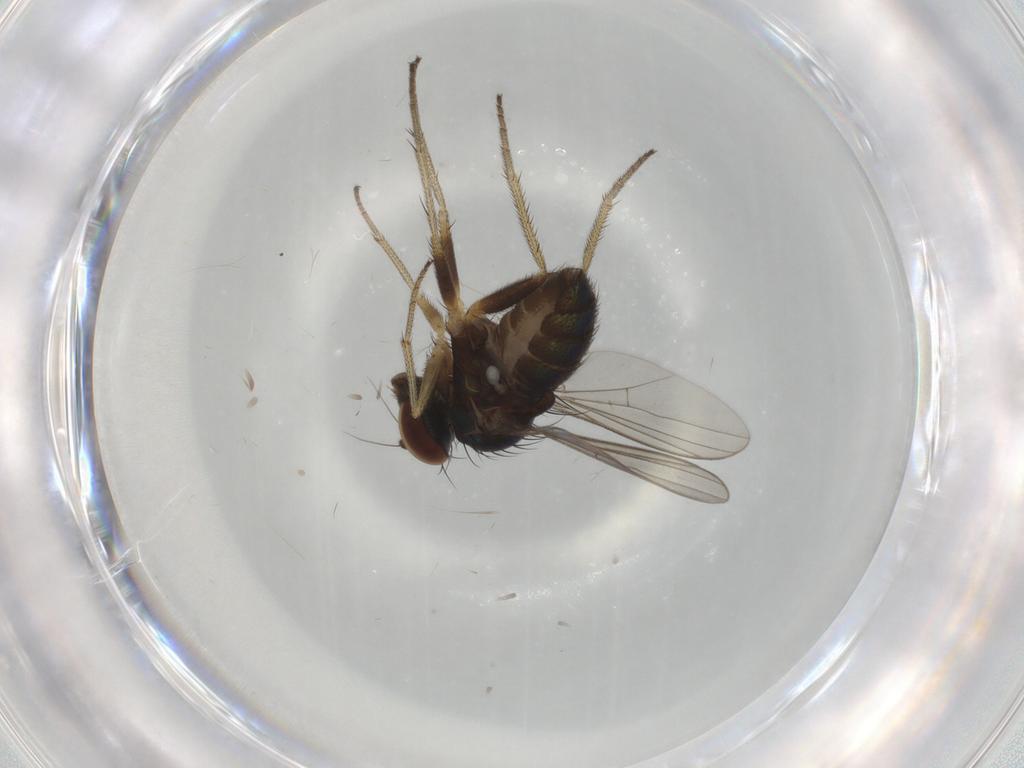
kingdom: Animalia
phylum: Arthropoda
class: Insecta
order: Diptera
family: Dolichopodidae
